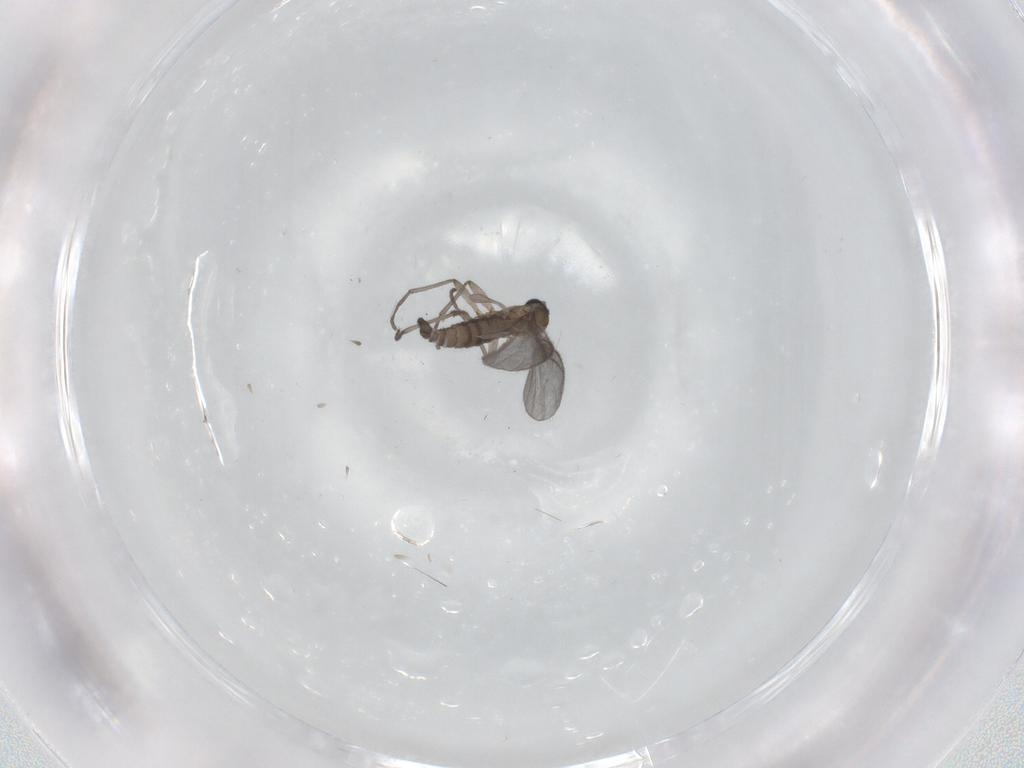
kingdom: Animalia
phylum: Arthropoda
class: Insecta
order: Diptera
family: Sciaridae
